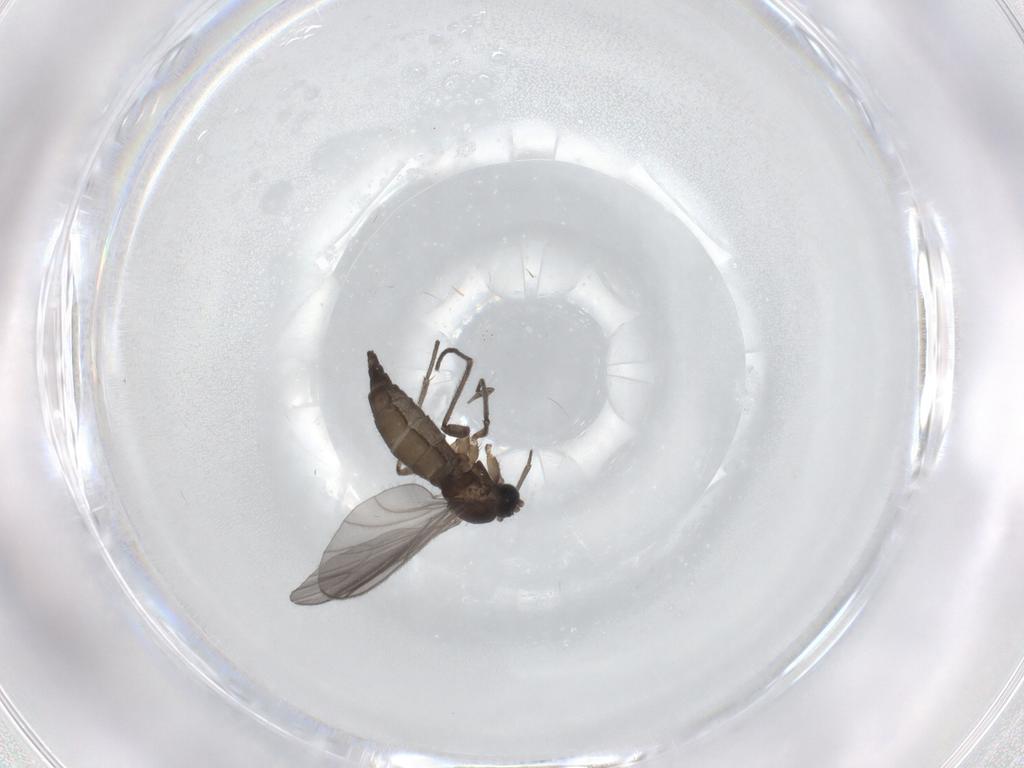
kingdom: Animalia
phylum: Arthropoda
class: Insecta
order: Diptera
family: Sciaridae
